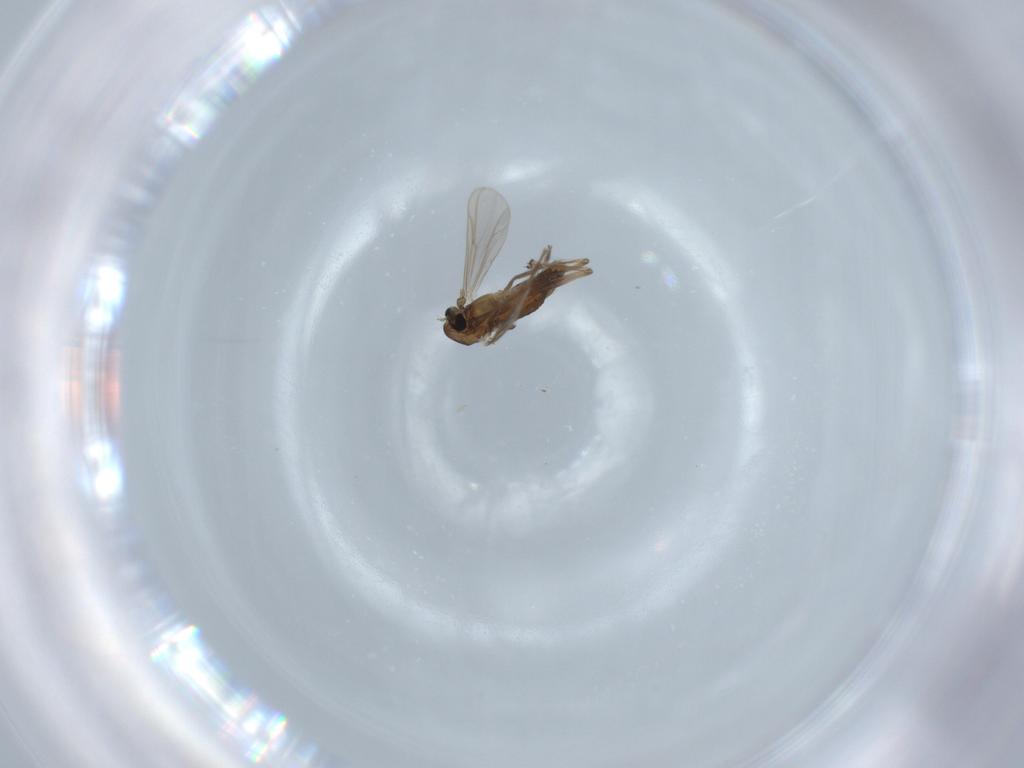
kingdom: Animalia
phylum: Arthropoda
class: Insecta
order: Diptera
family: Chironomidae
